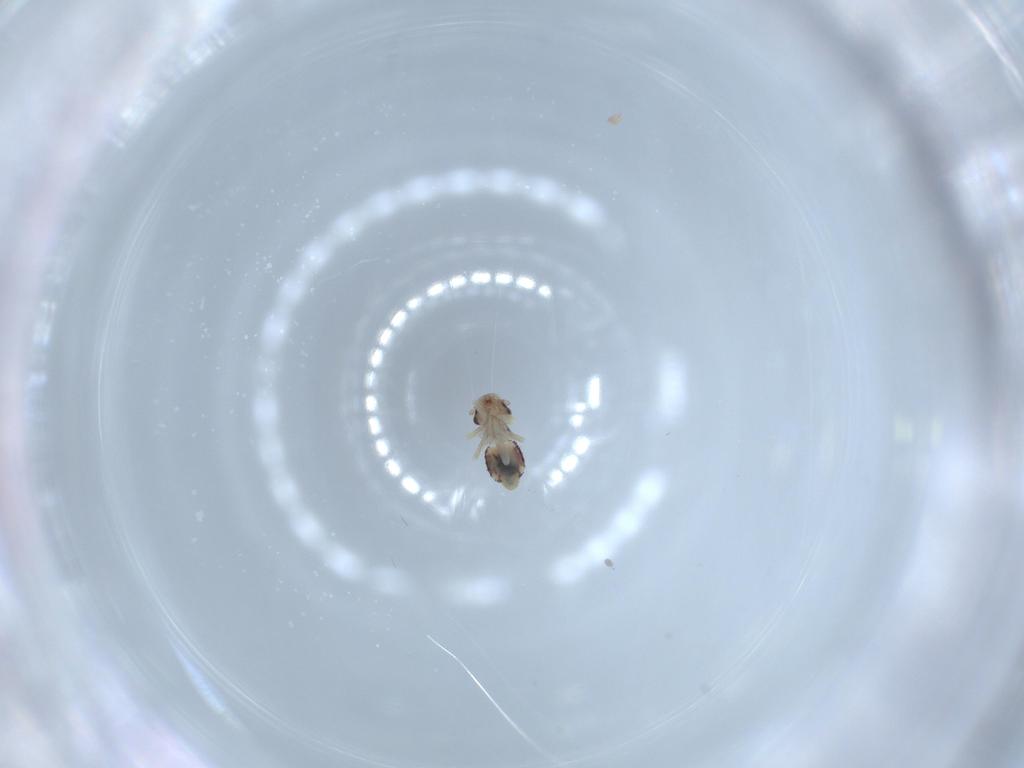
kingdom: Animalia
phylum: Arthropoda
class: Insecta
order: Psocodea
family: Psoquillidae
